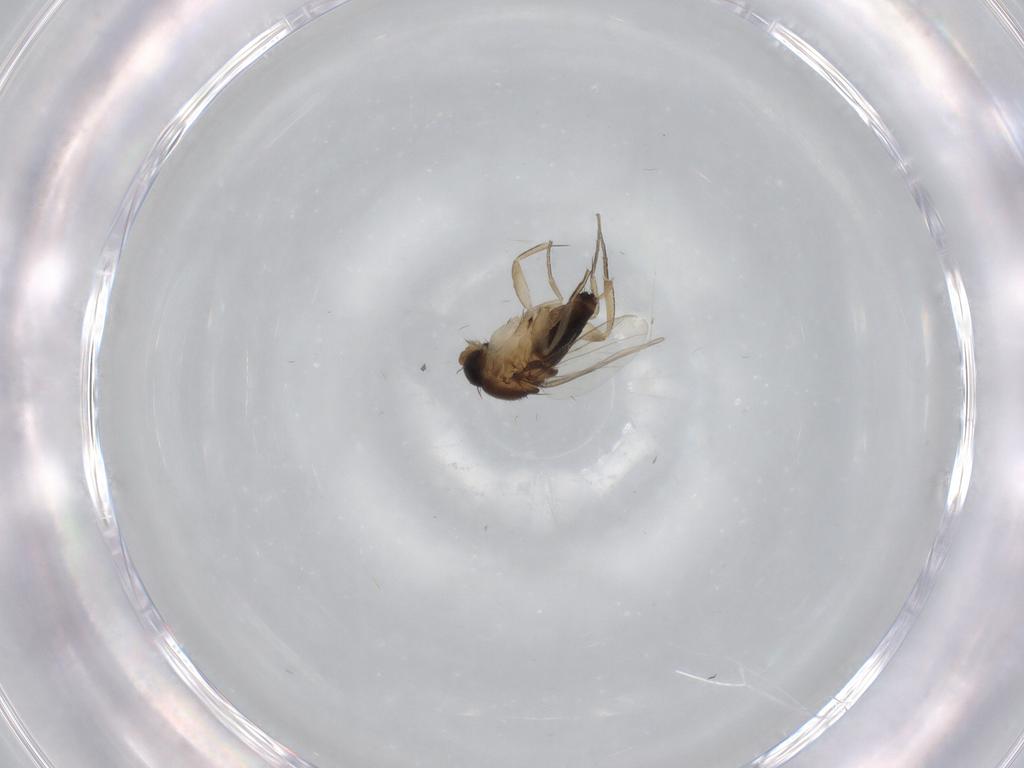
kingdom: Animalia
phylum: Arthropoda
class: Insecta
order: Diptera
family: Phoridae
